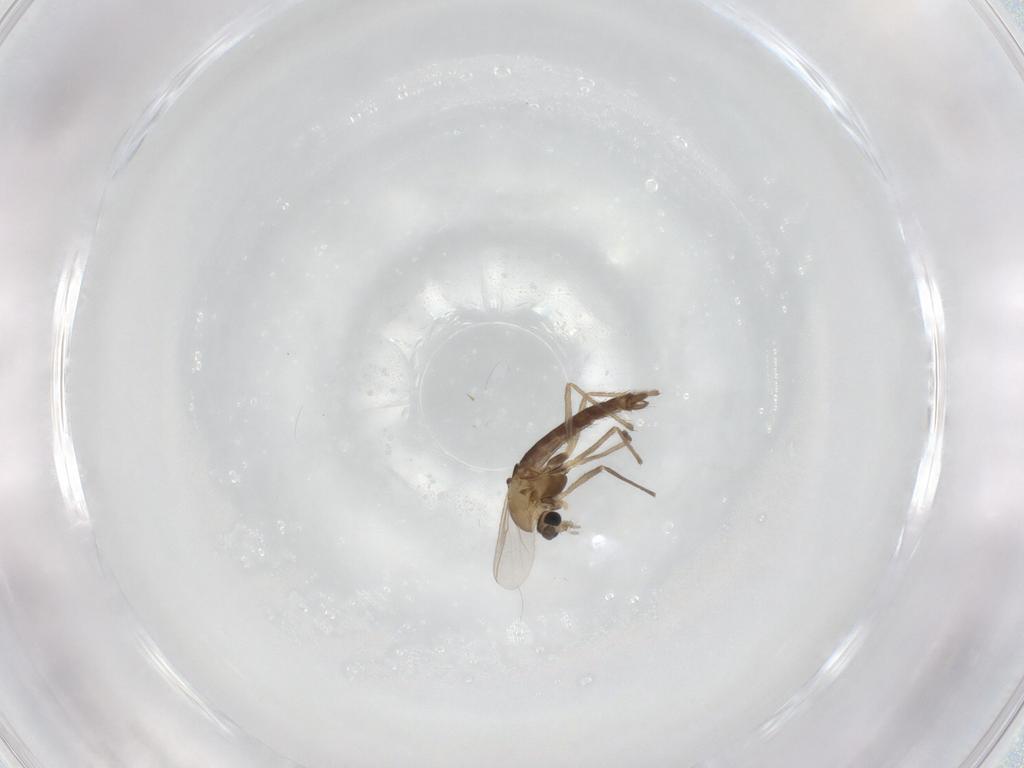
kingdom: Animalia
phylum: Arthropoda
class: Insecta
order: Diptera
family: Chironomidae
